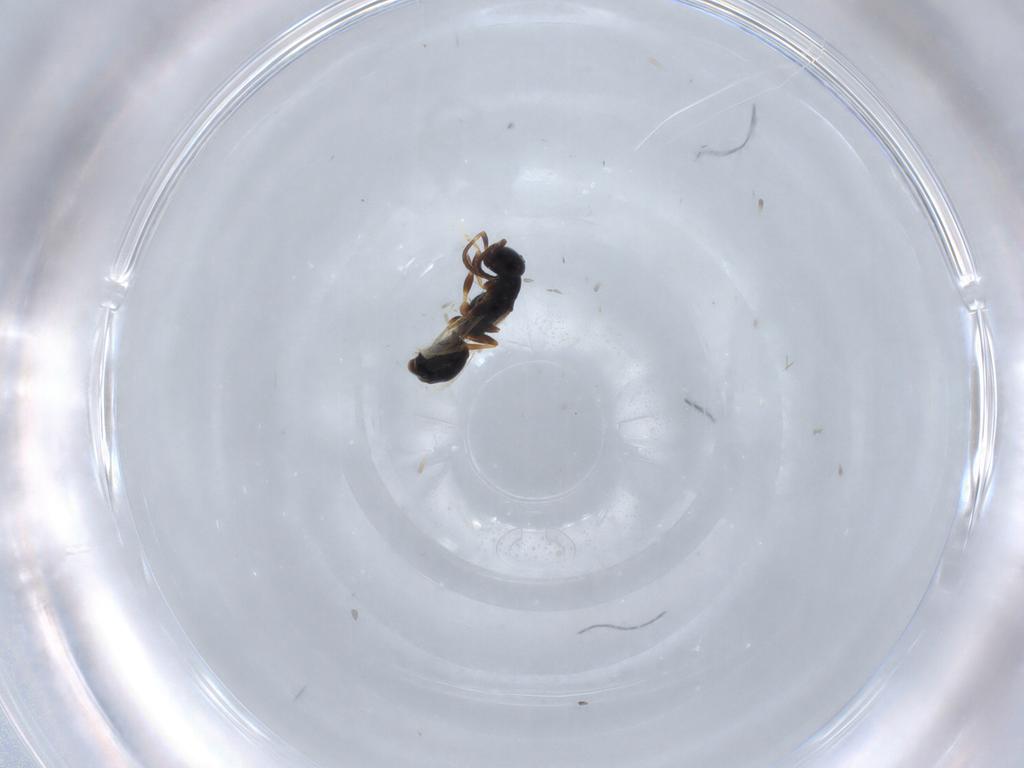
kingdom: Animalia
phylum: Arthropoda
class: Insecta
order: Hymenoptera
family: Bethylidae
